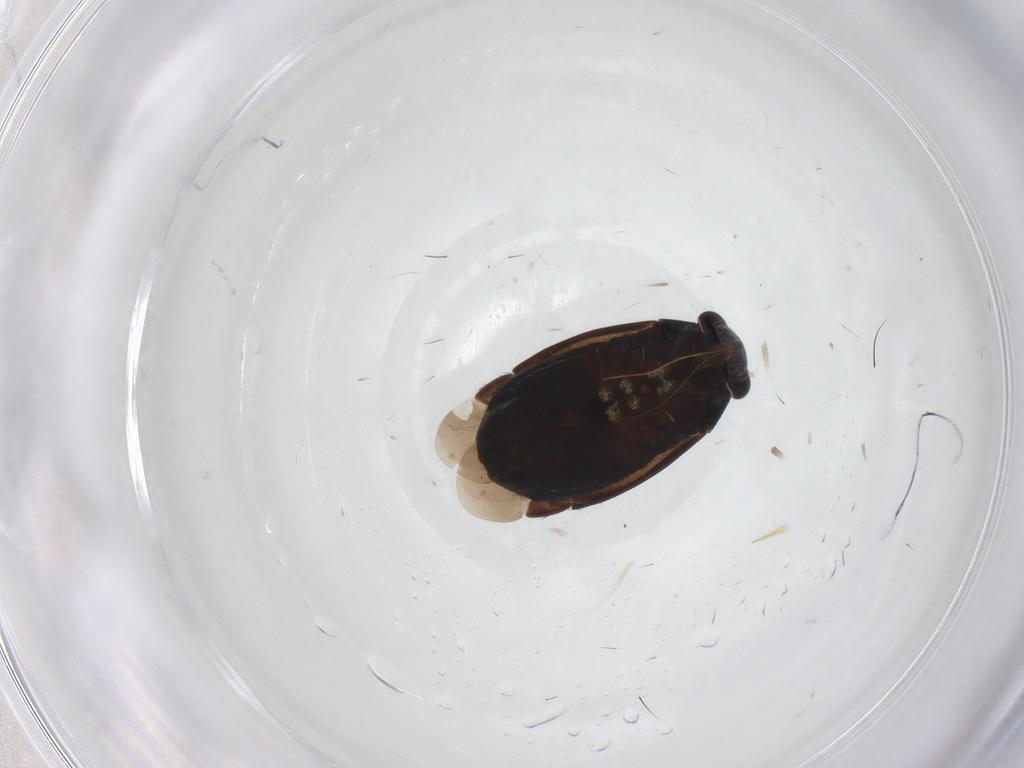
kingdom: Animalia
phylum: Arthropoda
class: Insecta
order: Hemiptera
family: Miridae
